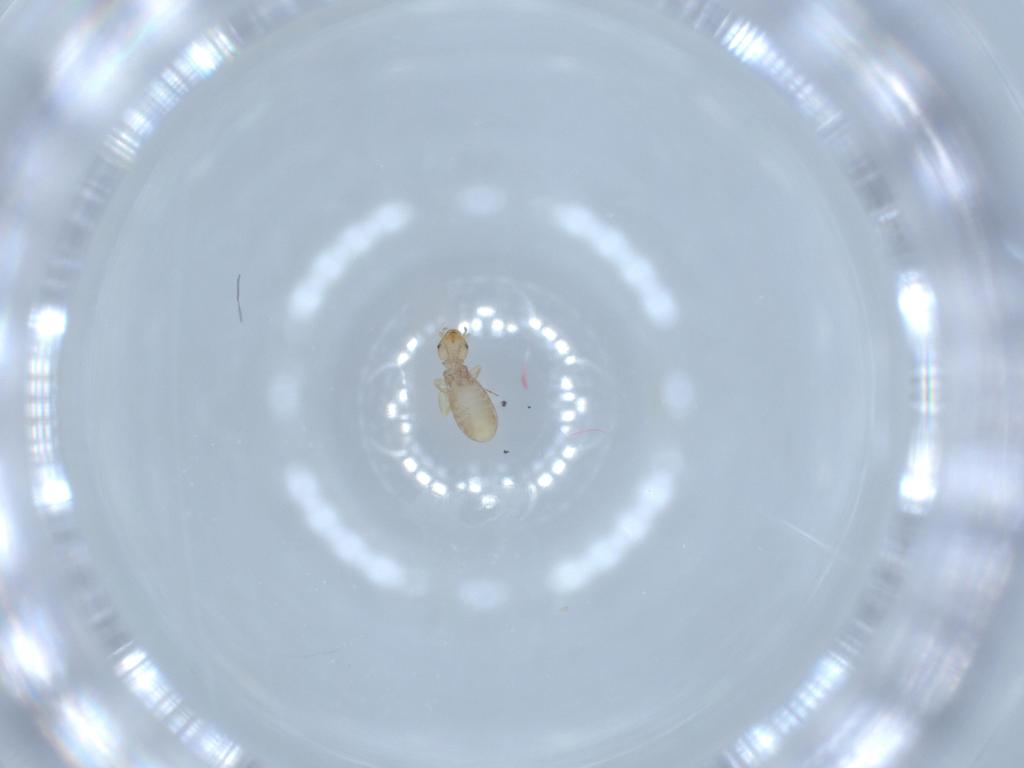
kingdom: Animalia
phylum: Arthropoda
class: Insecta
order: Psocodea
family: Liposcelididae
